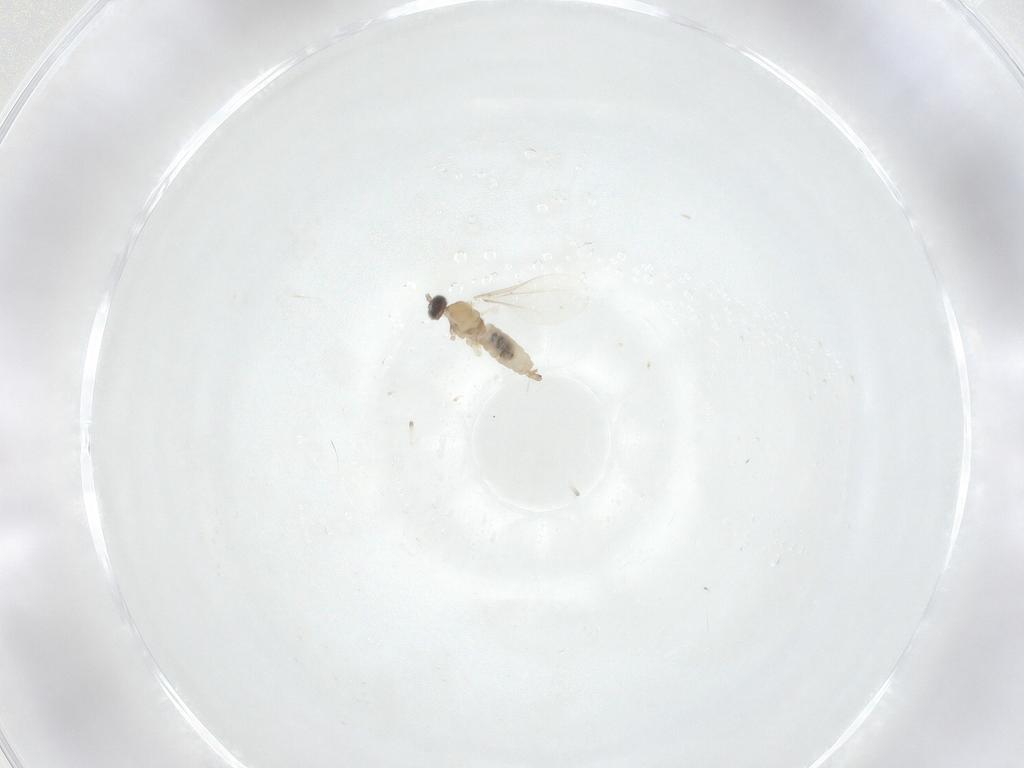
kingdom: Animalia
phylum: Arthropoda
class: Insecta
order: Diptera
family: Cecidomyiidae
